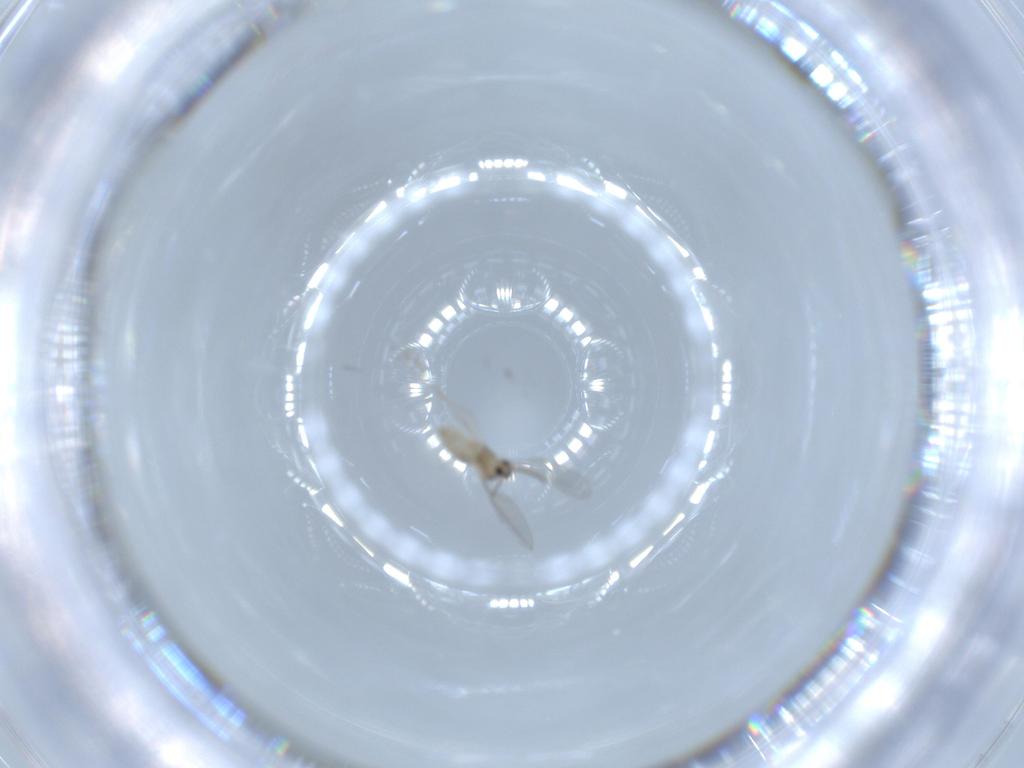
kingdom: Animalia
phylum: Arthropoda
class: Insecta
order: Diptera
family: Cecidomyiidae
